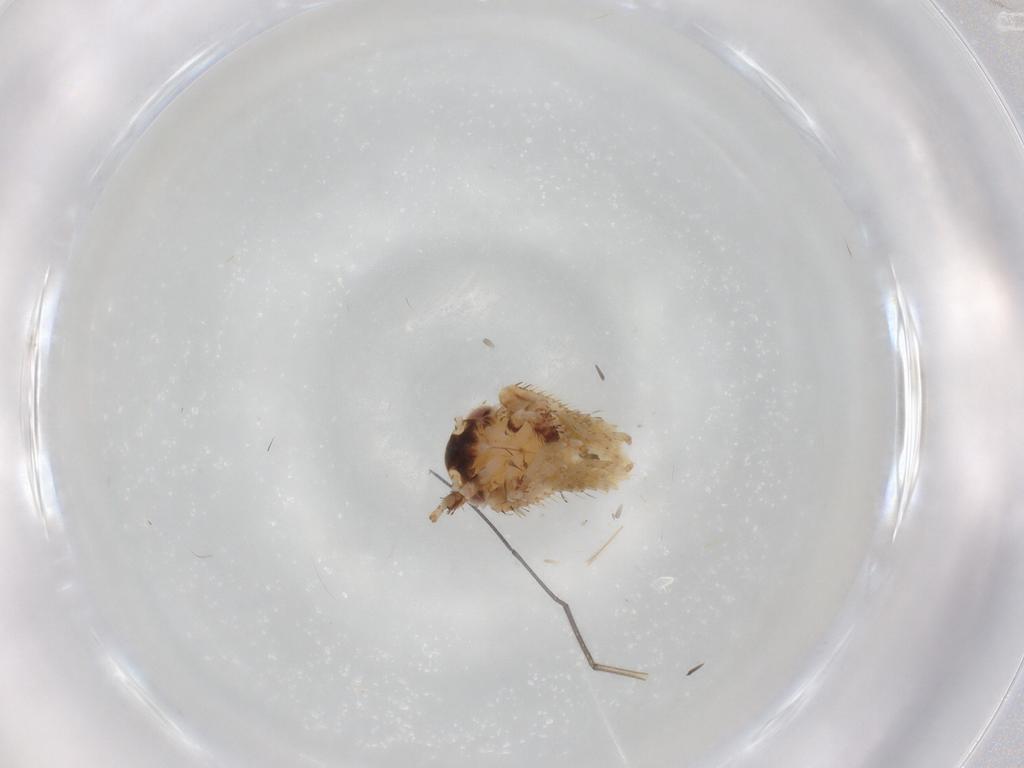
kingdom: Animalia
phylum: Arthropoda
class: Insecta
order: Hemiptera
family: Cicadellidae
